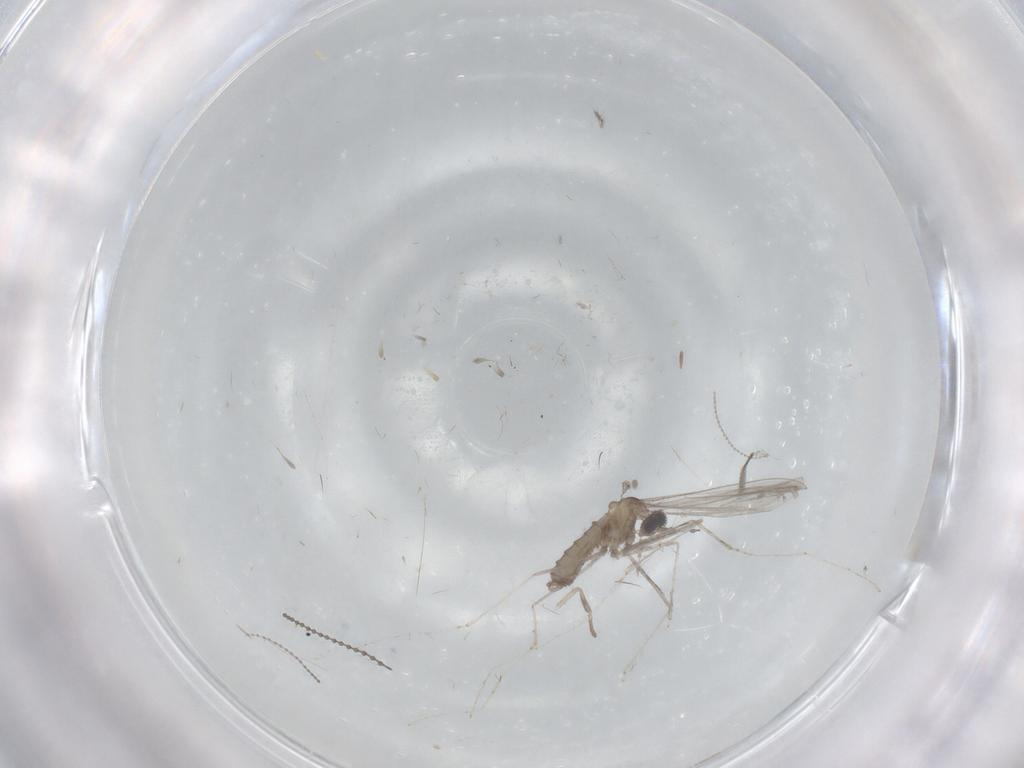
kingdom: Animalia
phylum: Arthropoda
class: Insecta
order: Diptera
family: Cecidomyiidae
